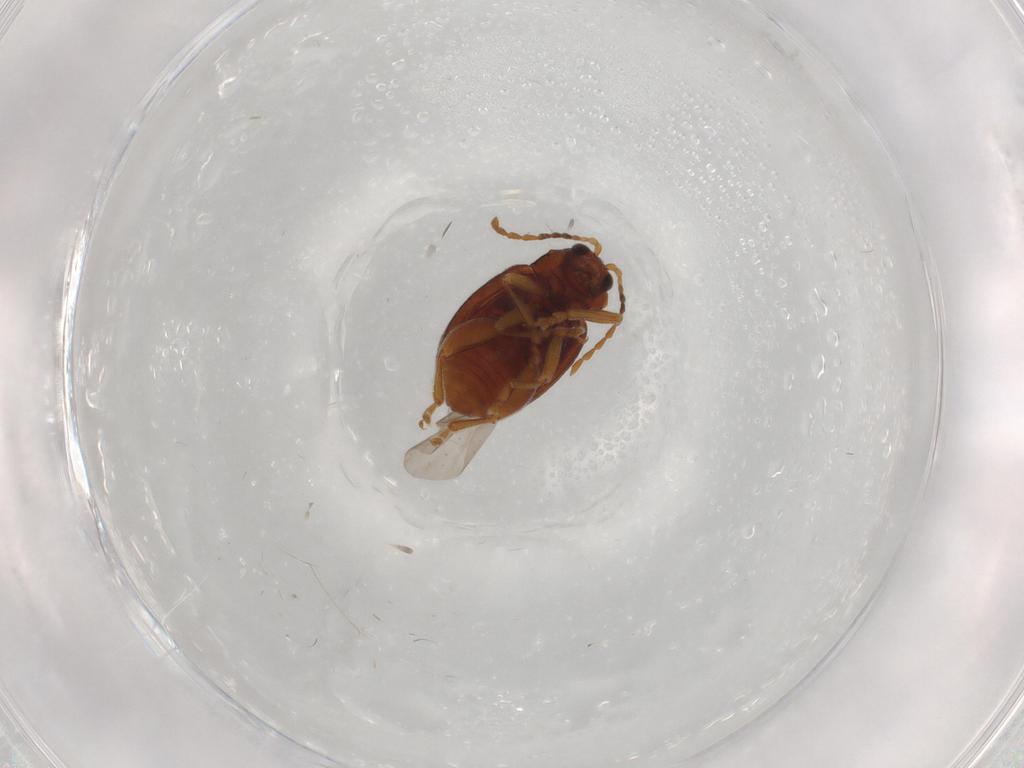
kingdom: Animalia
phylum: Arthropoda
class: Insecta
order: Coleoptera
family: Chrysomelidae
